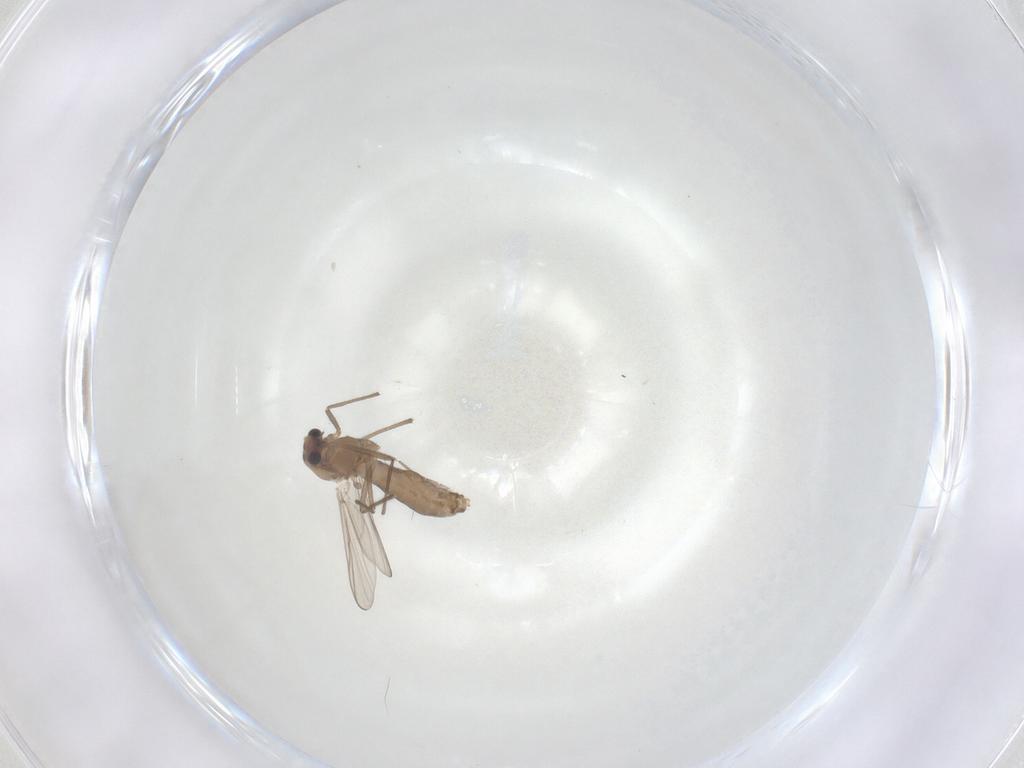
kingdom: Animalia
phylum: Arthropoda
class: Insecta
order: Diptera
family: Chironomidae
